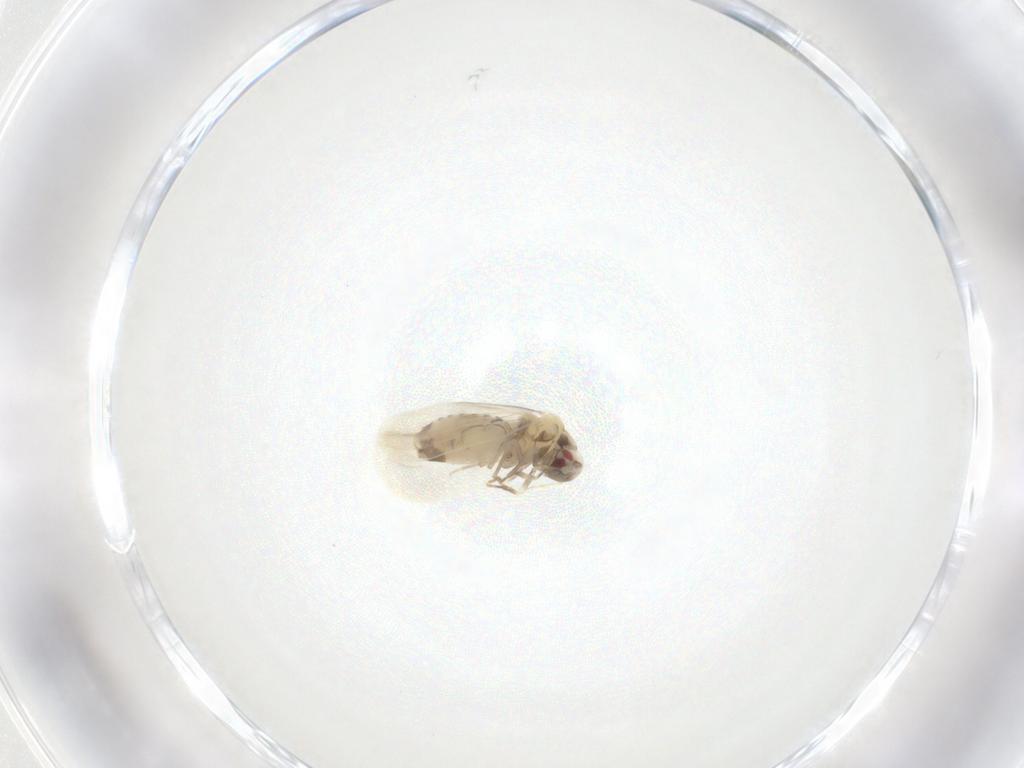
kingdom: Animalia
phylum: Arthropoda
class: Insecta
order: Hemiptera
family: Aleyrodidae
